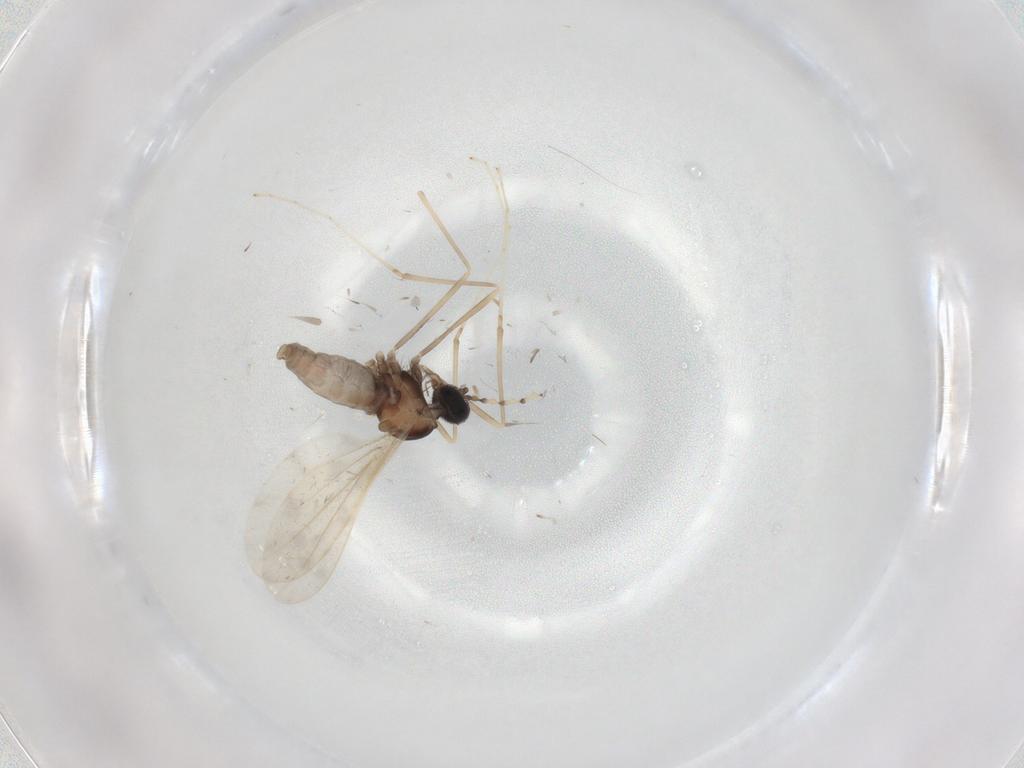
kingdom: Animalia
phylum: Arthropoda
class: Insecta
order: Diptera
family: Cecidomyiidae
